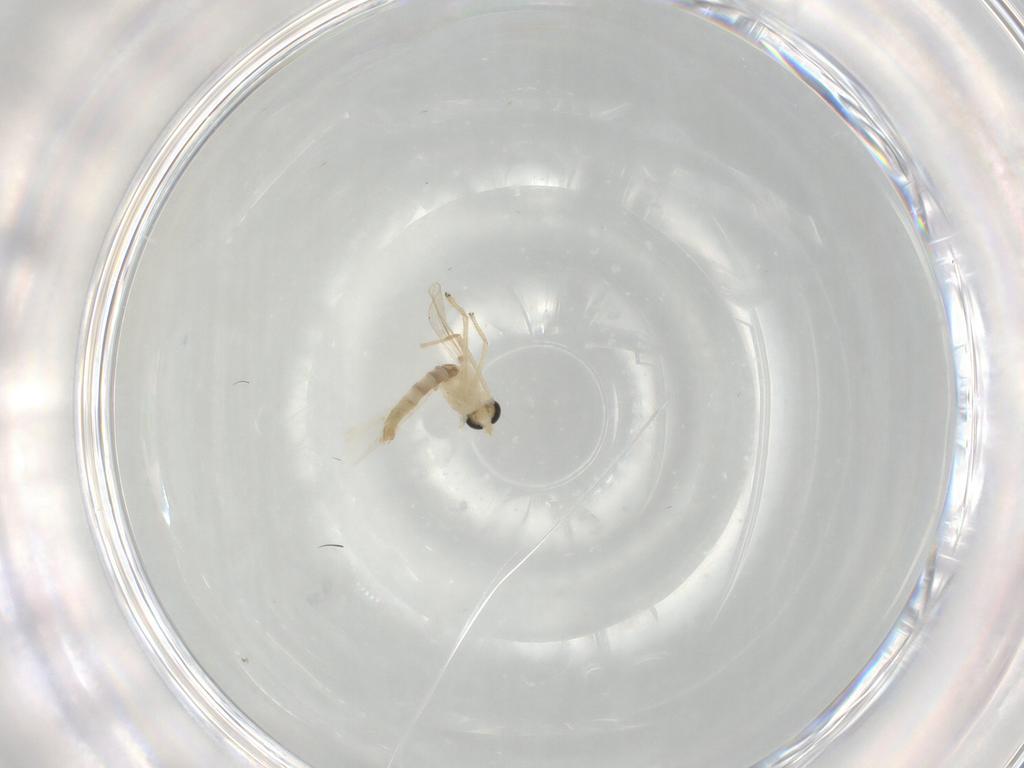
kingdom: Animalia
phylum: Arthropoda
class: Insecta
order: Diptera
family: Chironomidae
